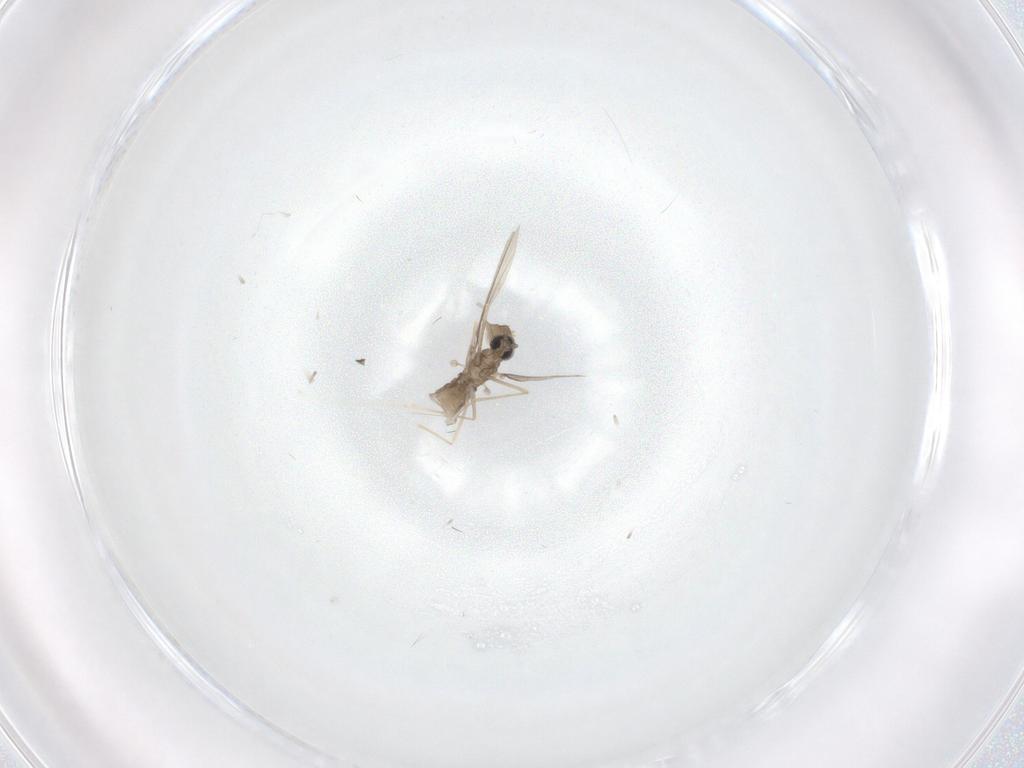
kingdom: Animalia
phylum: Arthropoda
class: Insecta
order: Diptera
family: Cecidomyiidae
